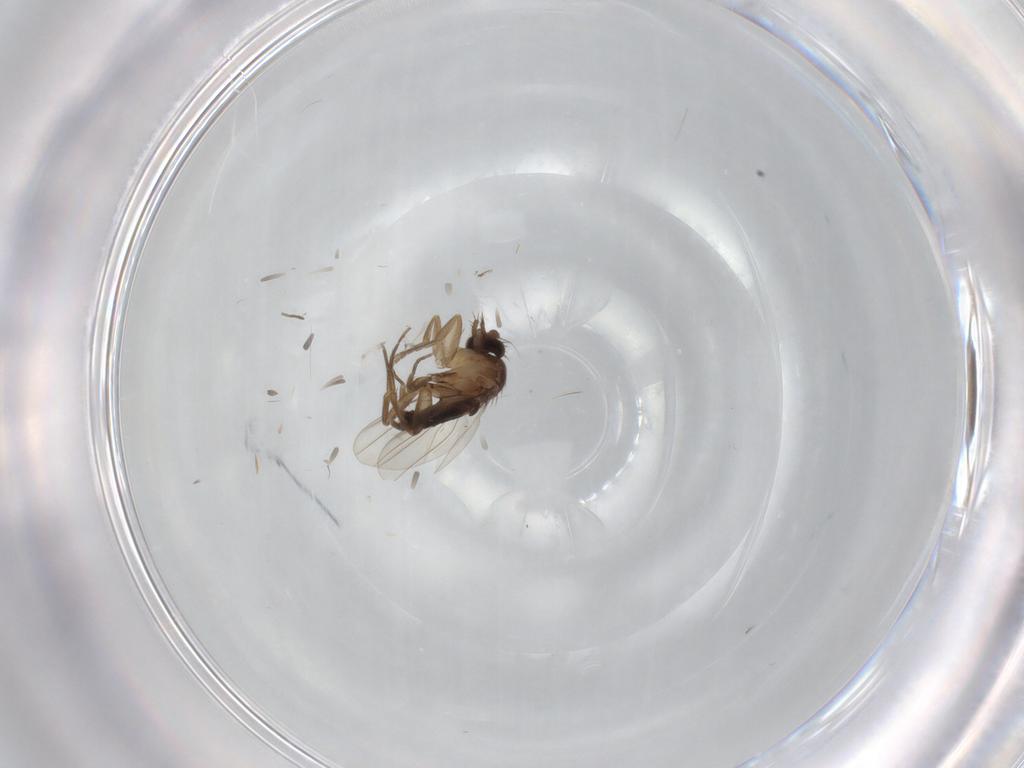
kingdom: Animalia
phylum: Arthropoda
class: Insecta
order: Diptera
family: Phoridae
